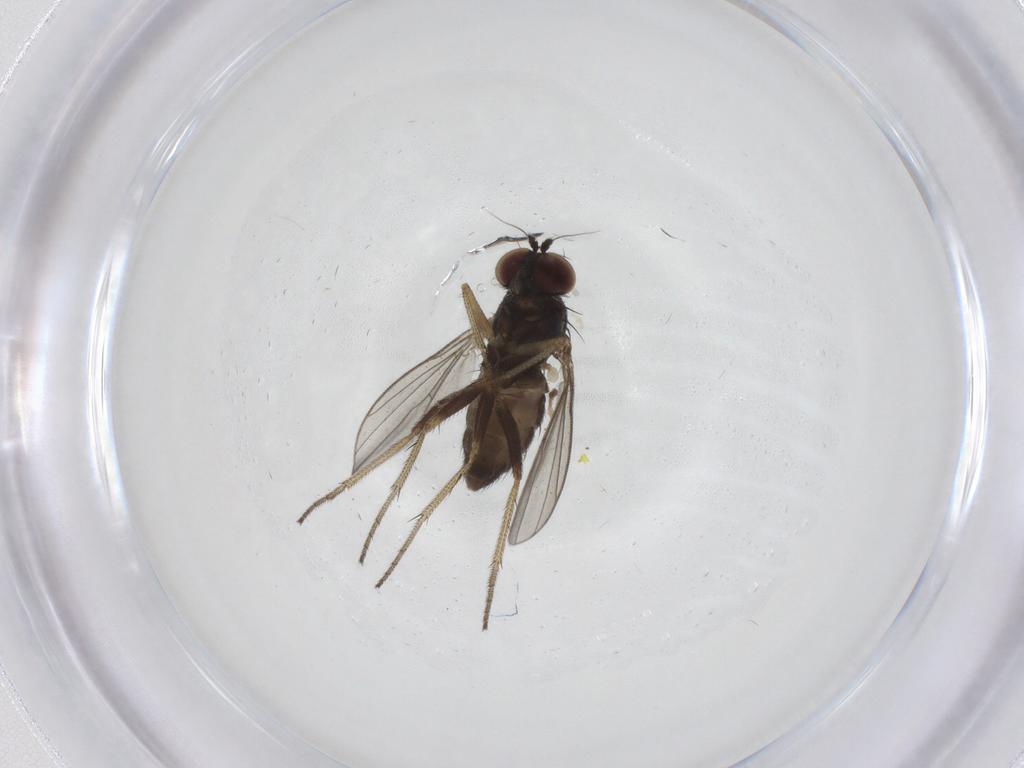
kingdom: Animalia
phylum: Arthropoda
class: Insecta
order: Diptera
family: Dolichopodidae
